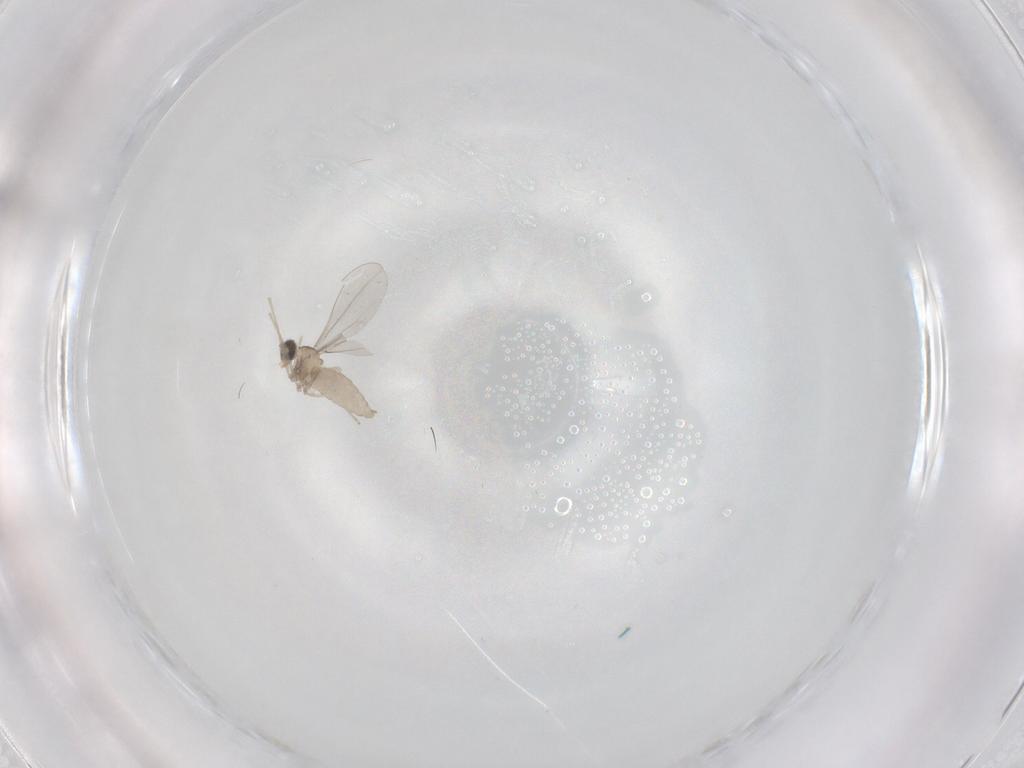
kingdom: Animalia
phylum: Arthropoda
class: Insecta
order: Diptera
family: Cecidomyiidae
